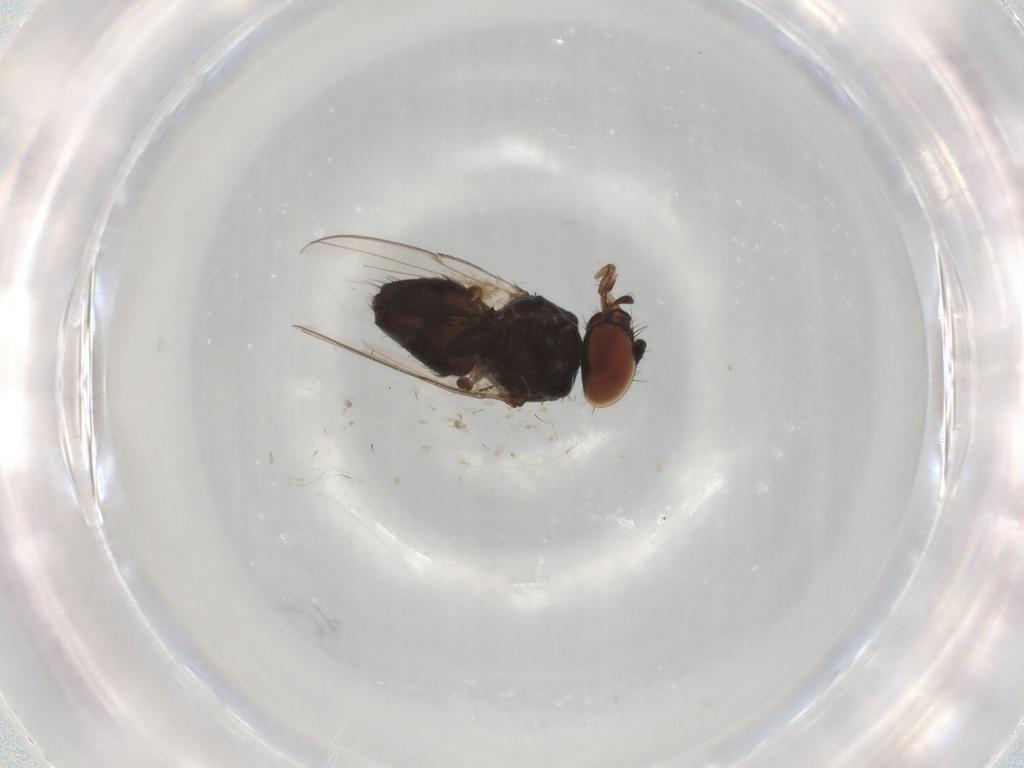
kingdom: Animalia
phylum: Arthropoda
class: Insecta
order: Diptera
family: Milichiidae
